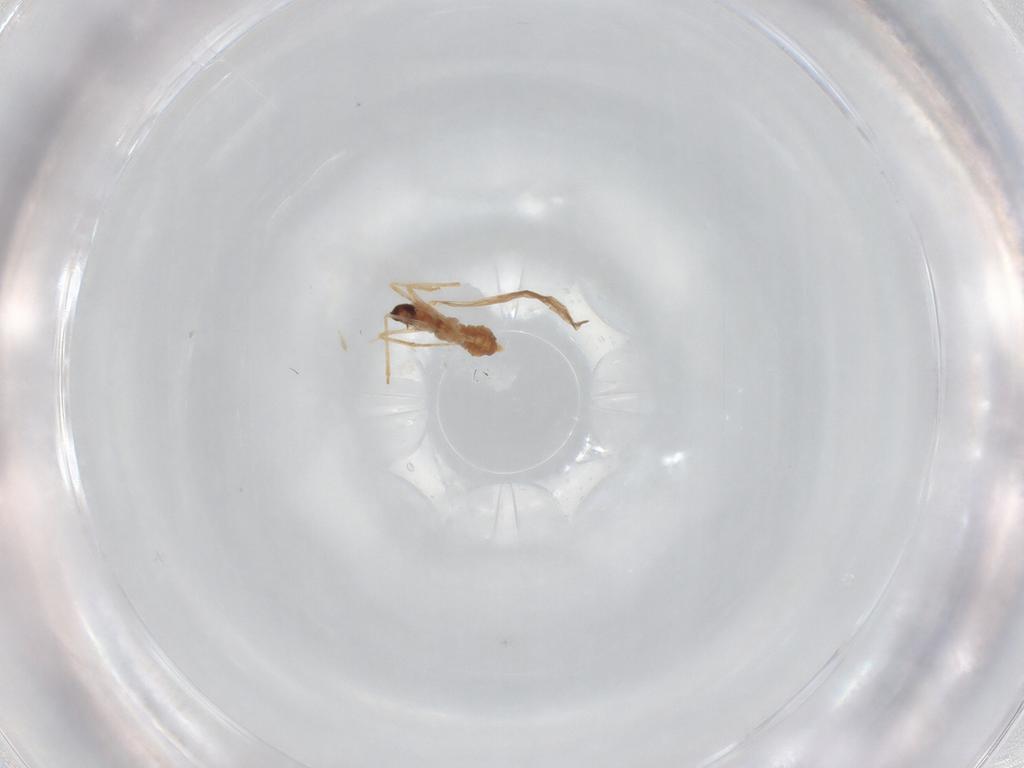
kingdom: Animalia
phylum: Arthropoda
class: Insecta
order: Diptera
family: Cecidomyiidae
